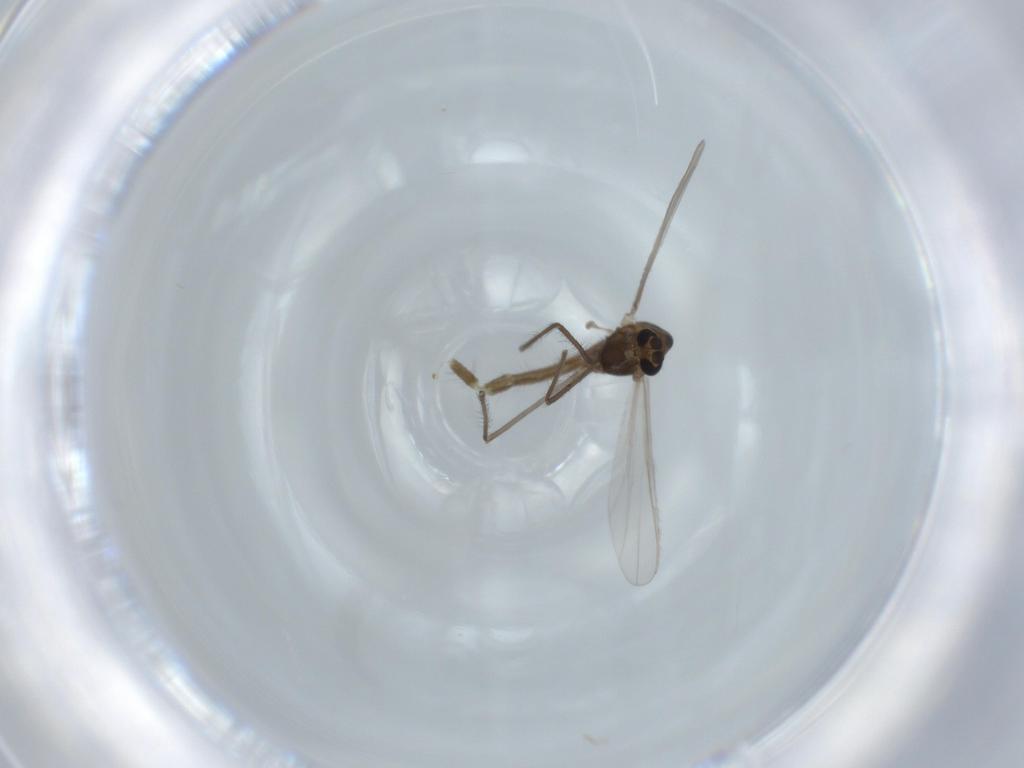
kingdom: Animalia
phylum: Arthropoda
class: Insecta
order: Diptera
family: Chironomidae
